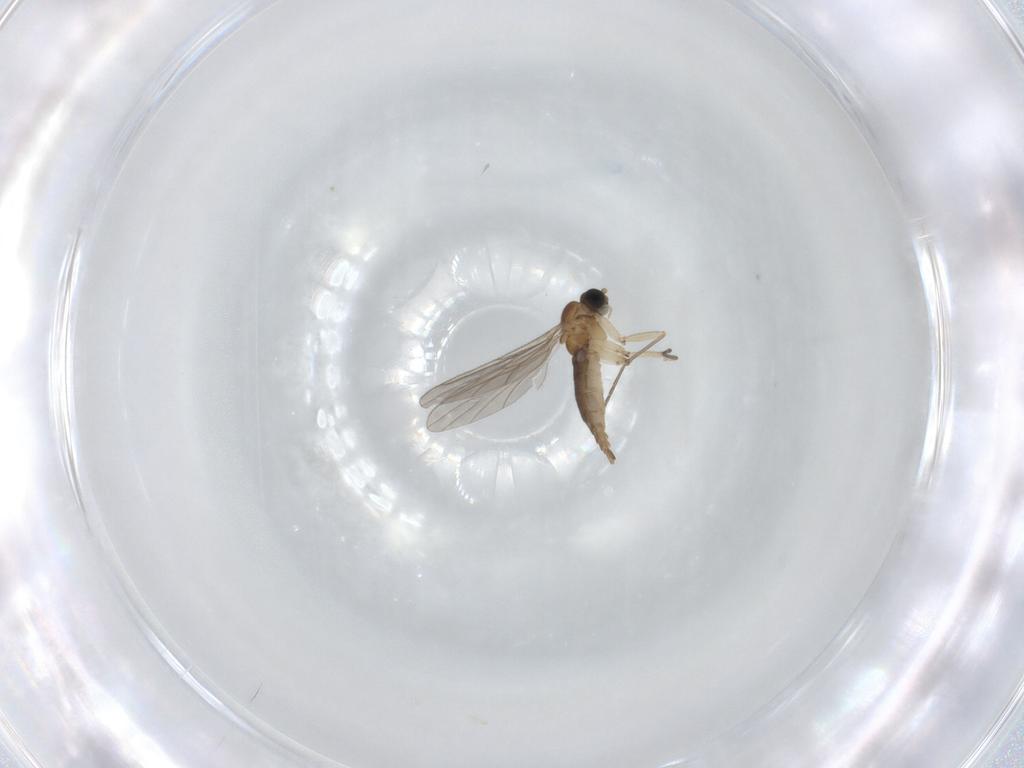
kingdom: Animalia
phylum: Arthropoda
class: Insecta
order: Diptera
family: Sciaridae
